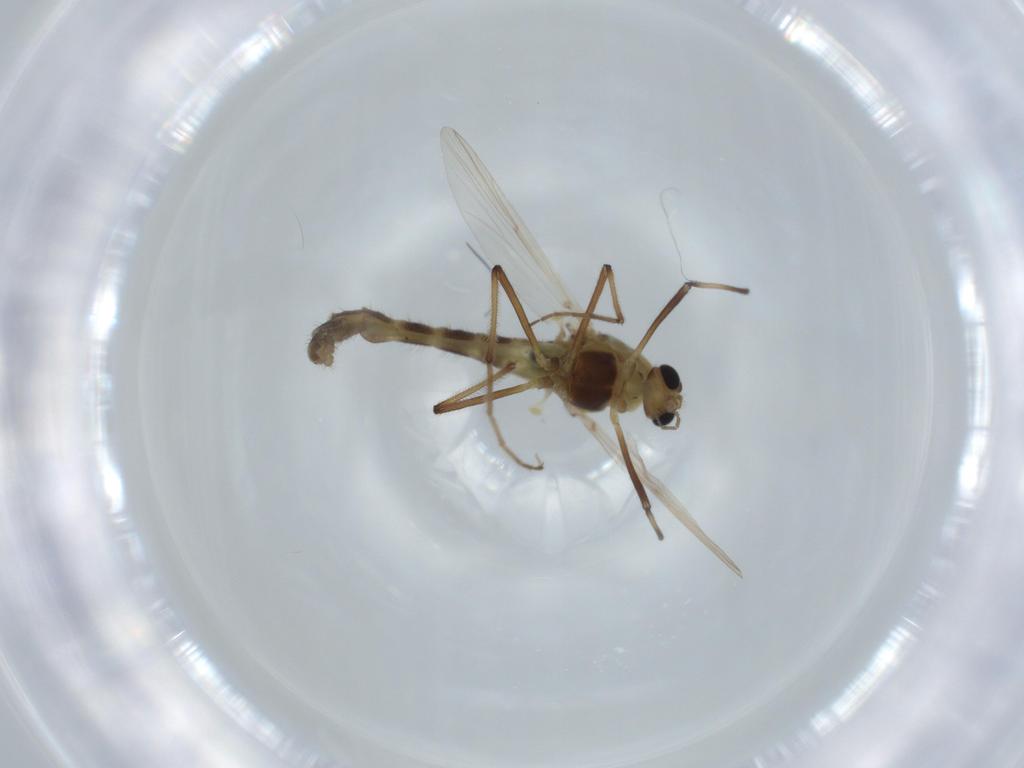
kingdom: Animalia
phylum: Arthropoda
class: Insecta
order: Diptera
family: Chironomidae
